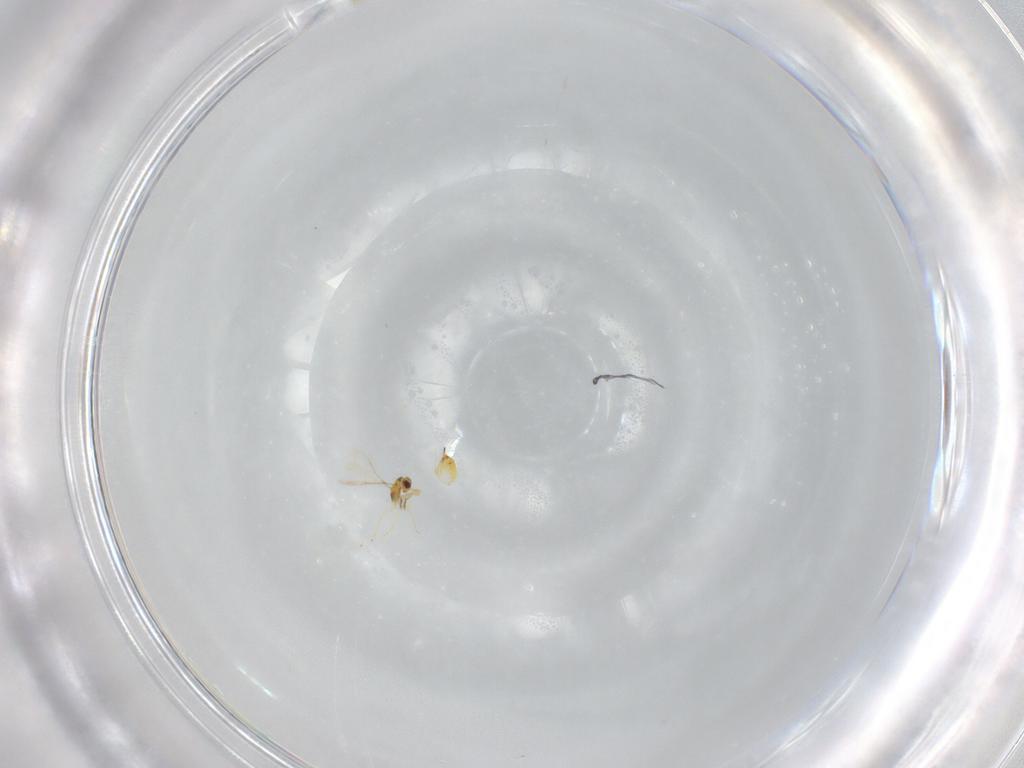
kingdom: Animalia
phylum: Arthropoda
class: Insecta
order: Hymenoptera
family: Mymaridae
